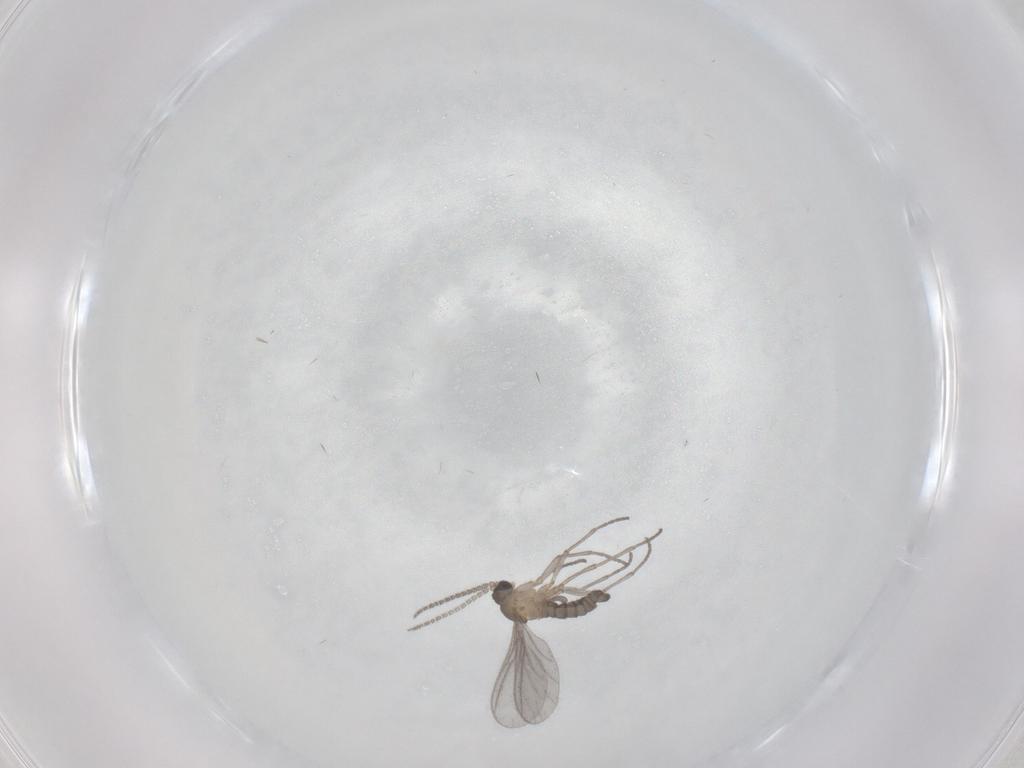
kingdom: Animalia
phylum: Arthropoda
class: Insecta
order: Diptera
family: Sciaridae
